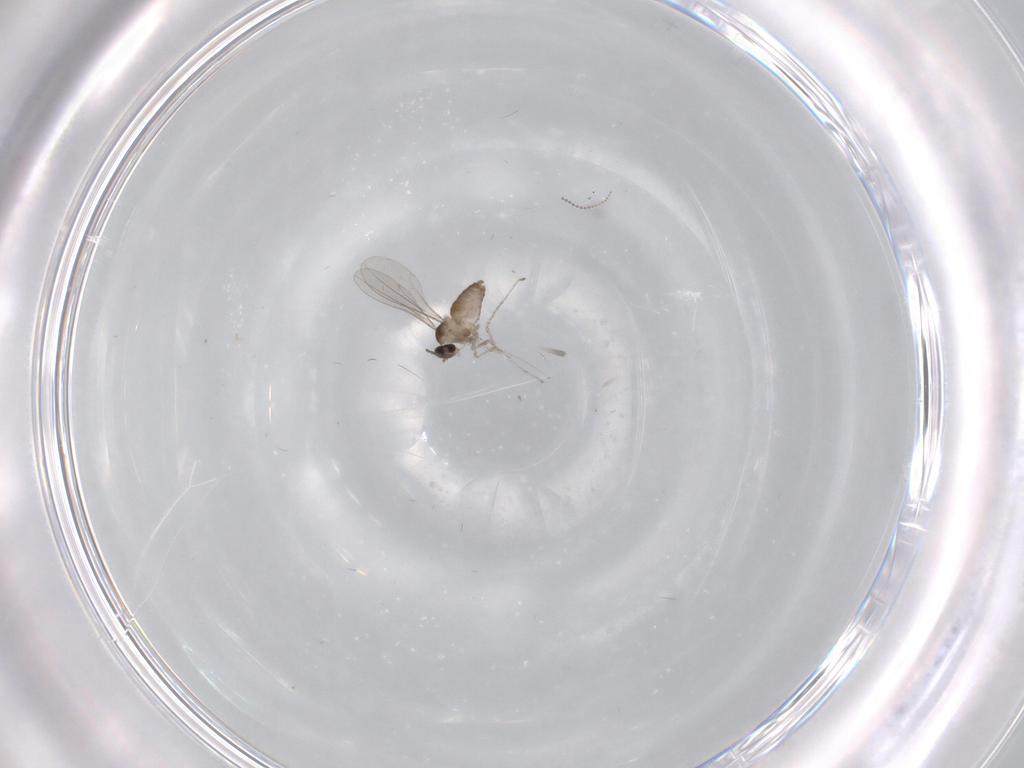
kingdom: Animalia
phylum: Arthropoda
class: Insecta
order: Diptera
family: Cecidomyiidae
